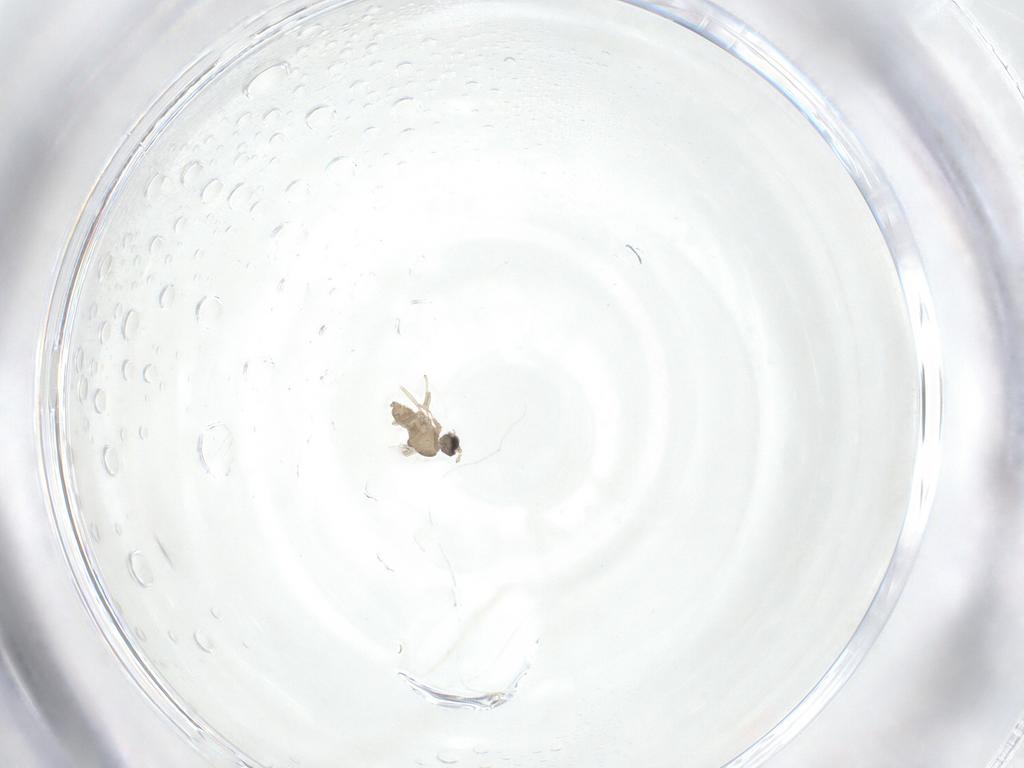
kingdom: Animalia
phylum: Arthropoda
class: Insecta
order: Diptera
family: Cecidomyiidae
